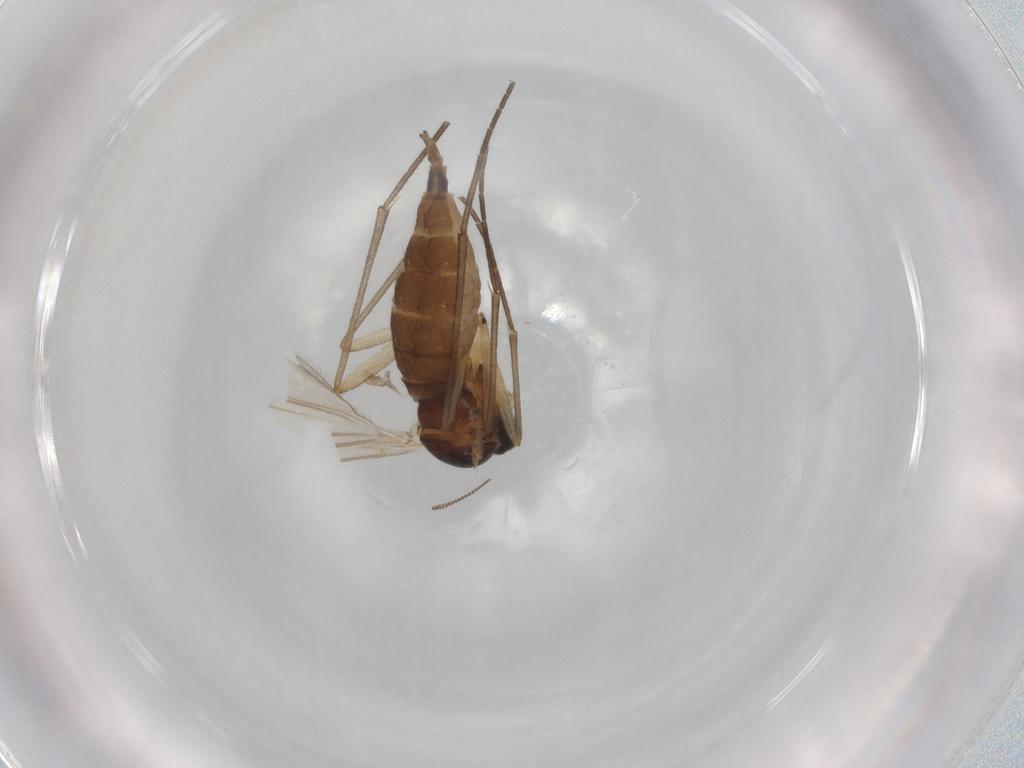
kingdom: Animalia
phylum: Arthropoda
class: Insecta
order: Diptera
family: Sciaridae
